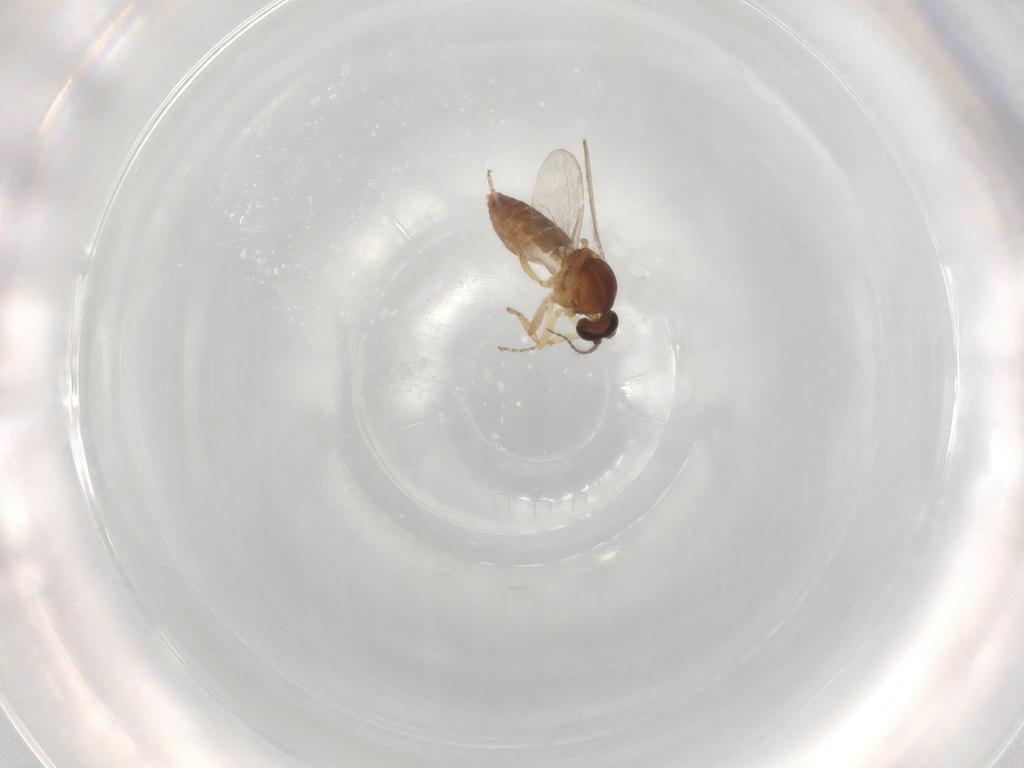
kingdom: Animalia
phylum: Arthropoda
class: Insecta
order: Diptera
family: Ceratopogonidae
